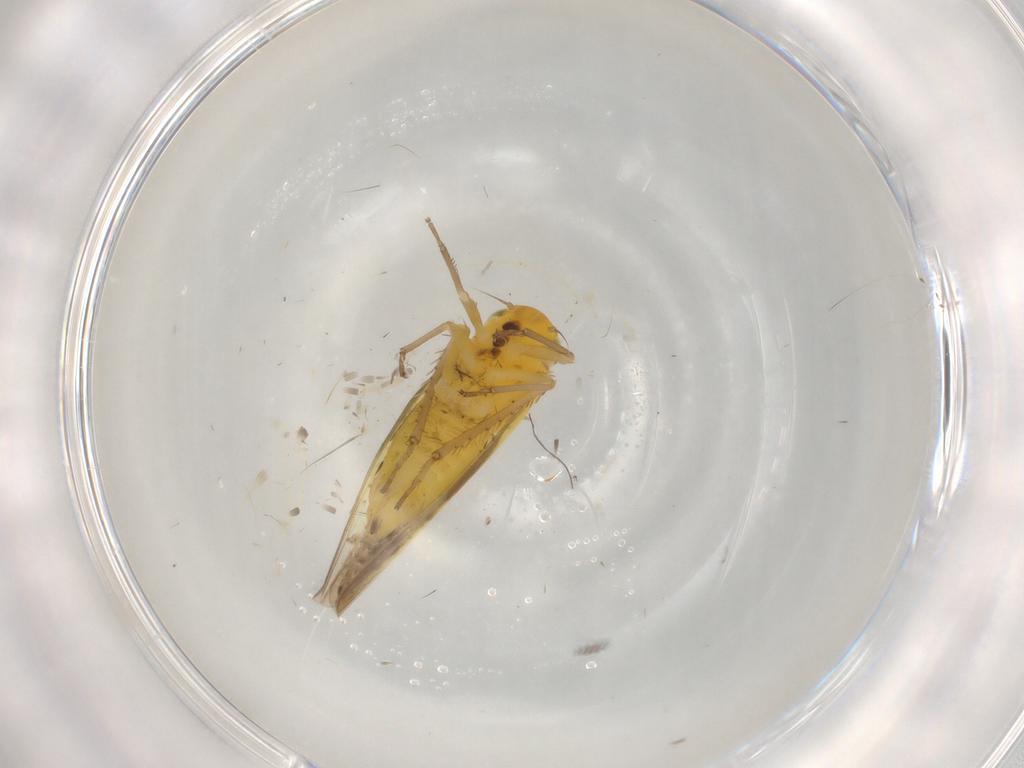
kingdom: Animalia
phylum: Arthropoda
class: Insecta
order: Hemiptera
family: Cicadellidae
